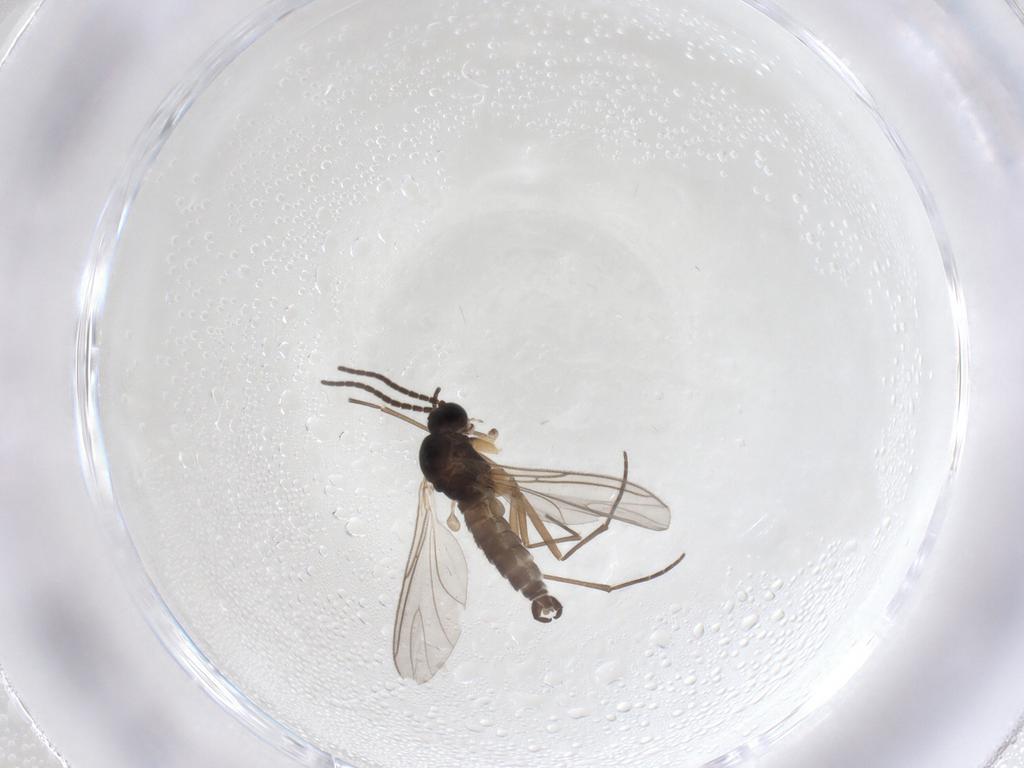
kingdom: Animalia
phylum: Arthropoda
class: Insecta
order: Diptera
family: Sciaridae
